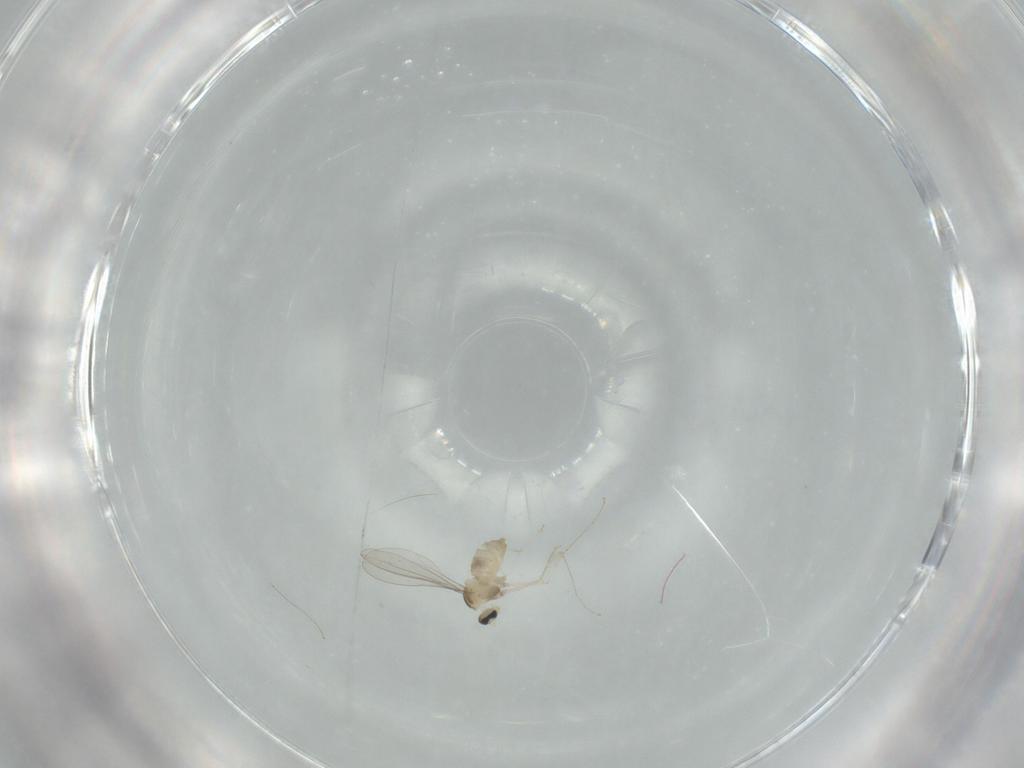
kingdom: Animalia
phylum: Arthropoda
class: Insecta
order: Diptera
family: Cecidomyiidae
